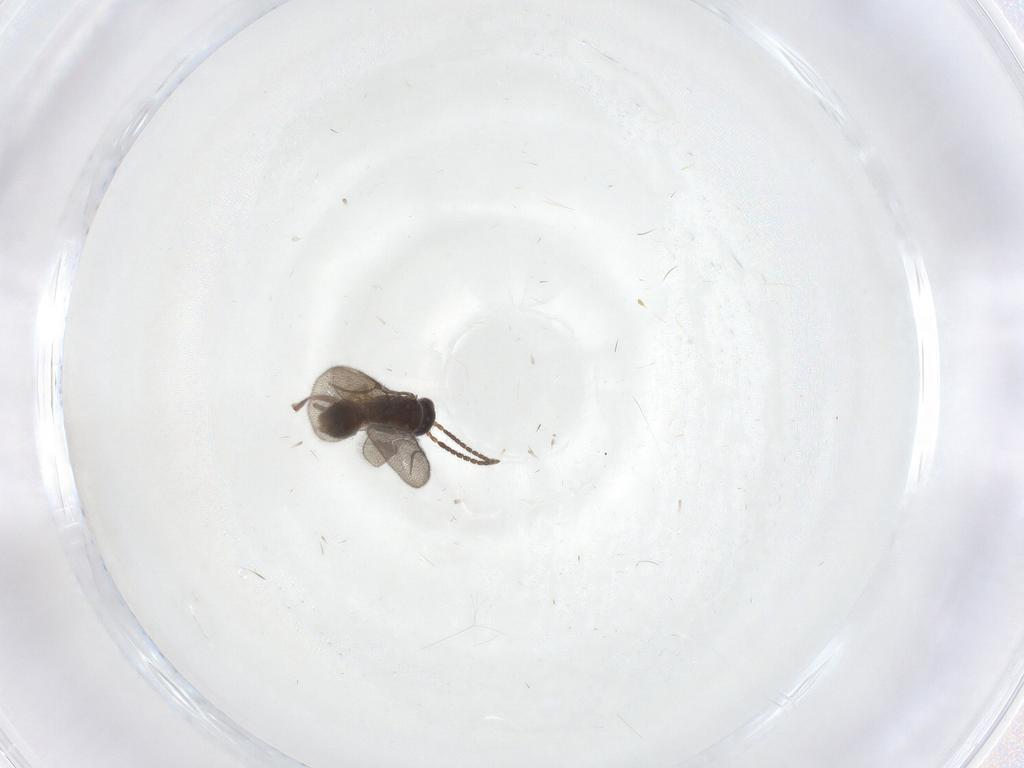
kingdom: Animalia
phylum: Arthropoda
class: Insecta
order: Hymenoptera
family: Bethylidae
